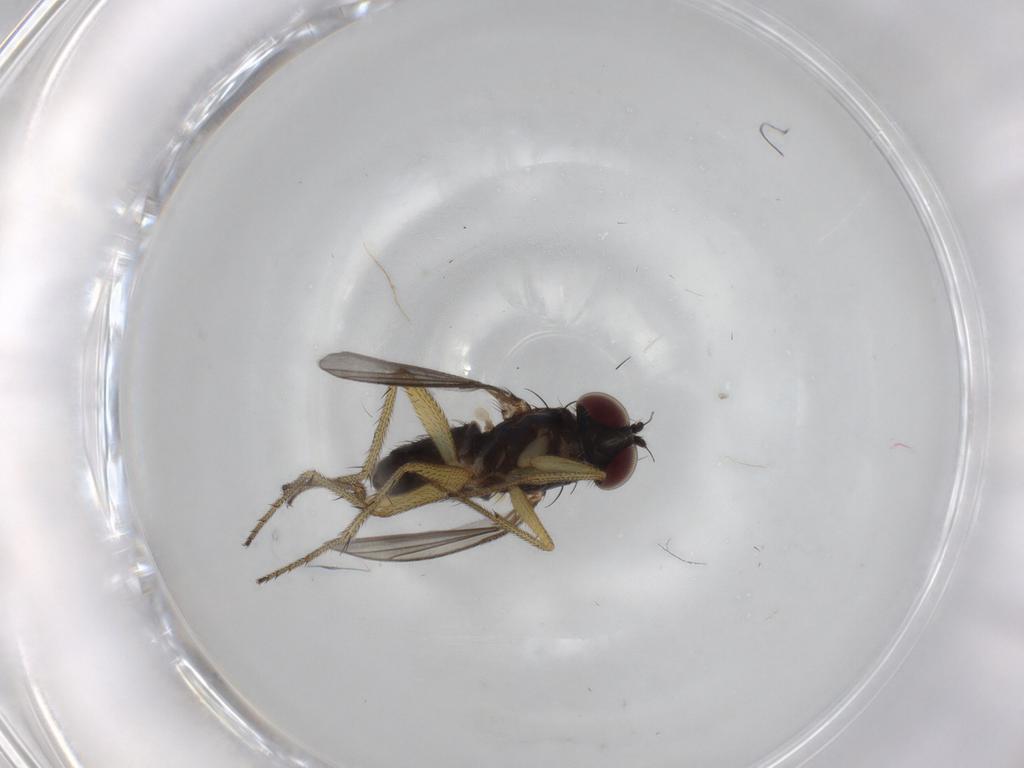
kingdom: Animalia
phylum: Arthropoda
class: Insecta
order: Diptera
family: Dolichopodidae
